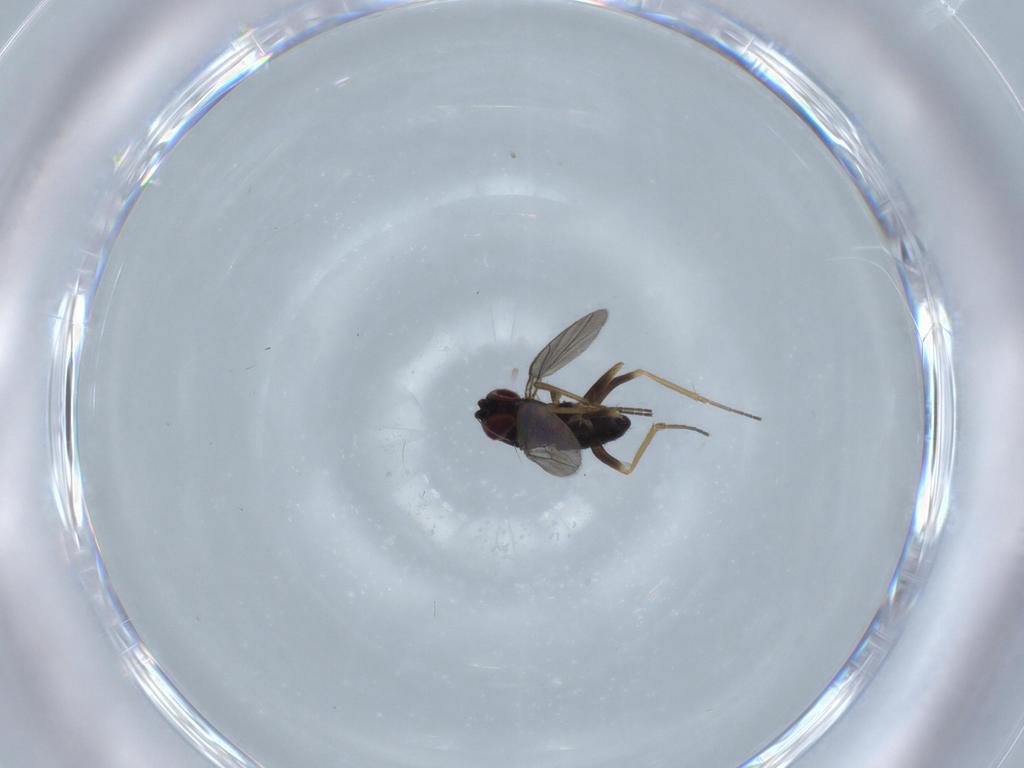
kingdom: Animalia
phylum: Arthropoda
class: Insecta
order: Diptera
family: Dolichopodidae
